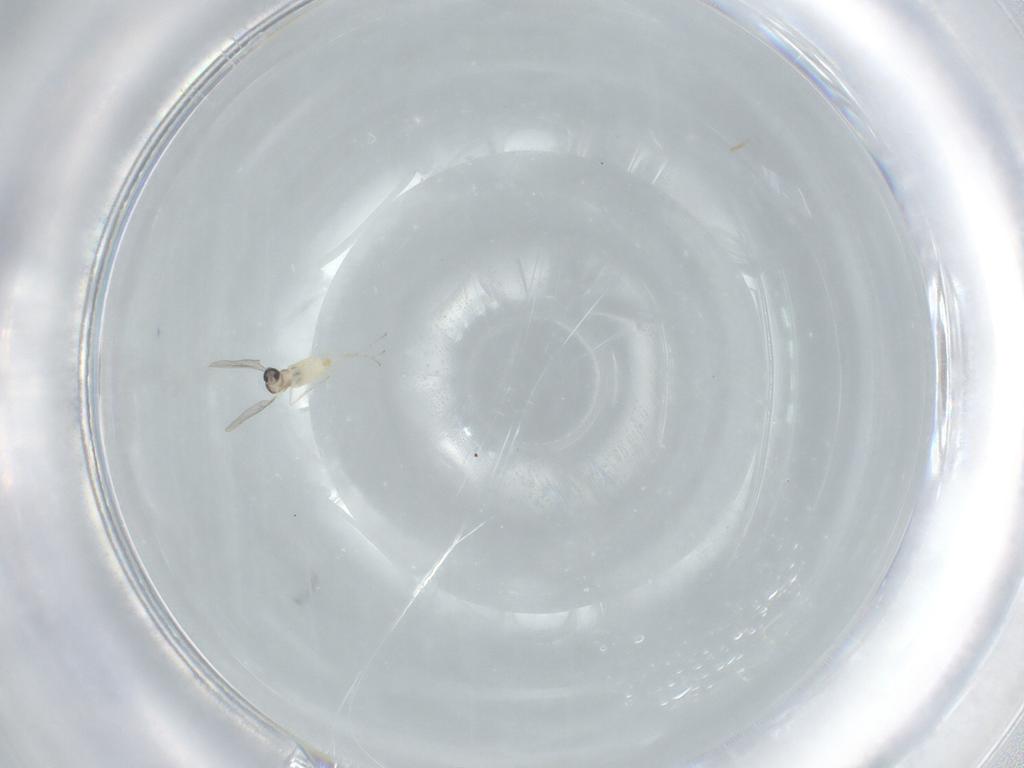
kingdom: Animalia
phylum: Arthropoda
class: Insecta
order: Diptera
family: Cecidomyiidae
